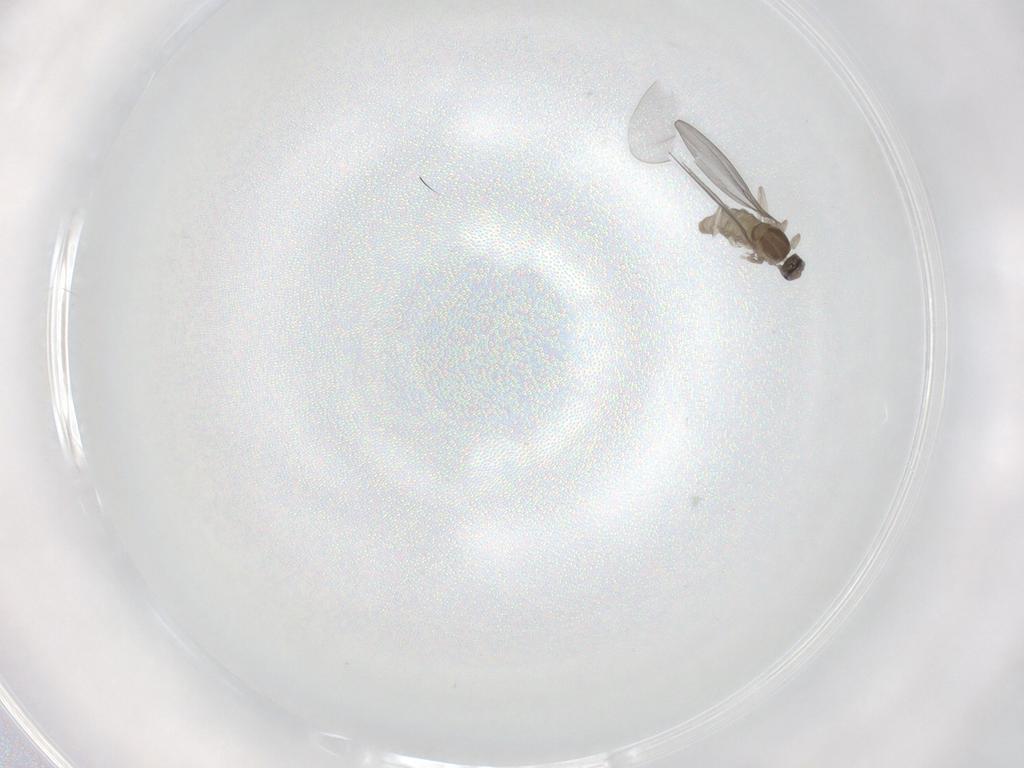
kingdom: Animalia
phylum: Arthropoda
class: Insecta
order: Diptera
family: Cecidomyiidae
